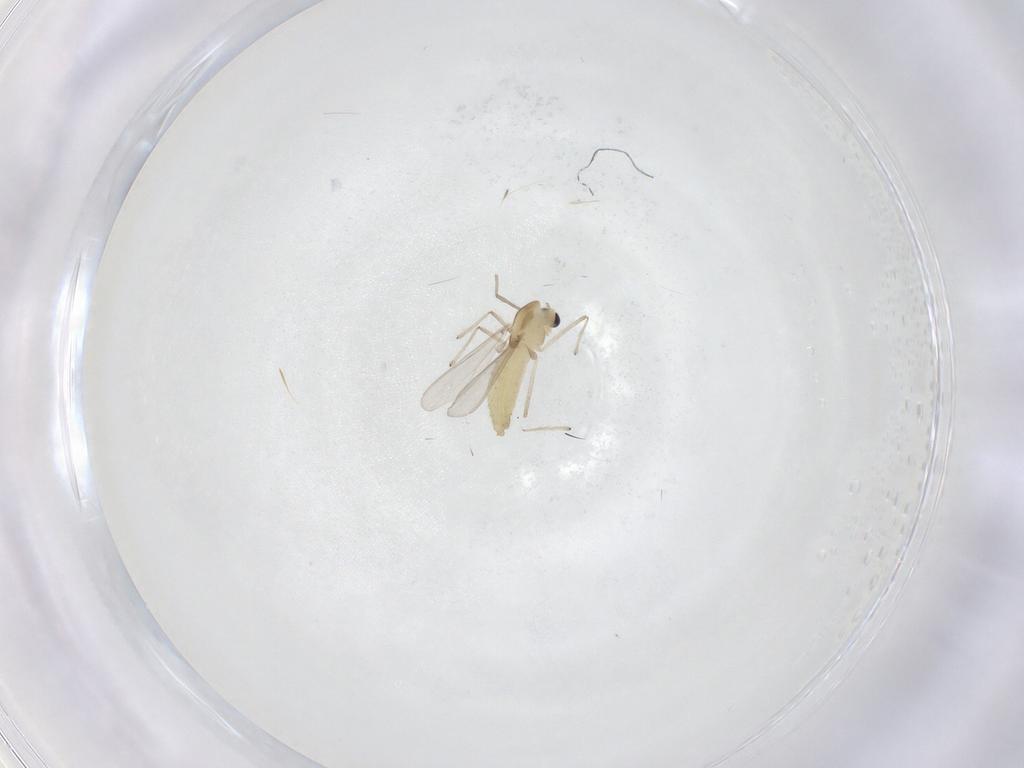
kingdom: Animalia
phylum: Arthropoda
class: Insecta
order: Diptera
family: Chironomidae
